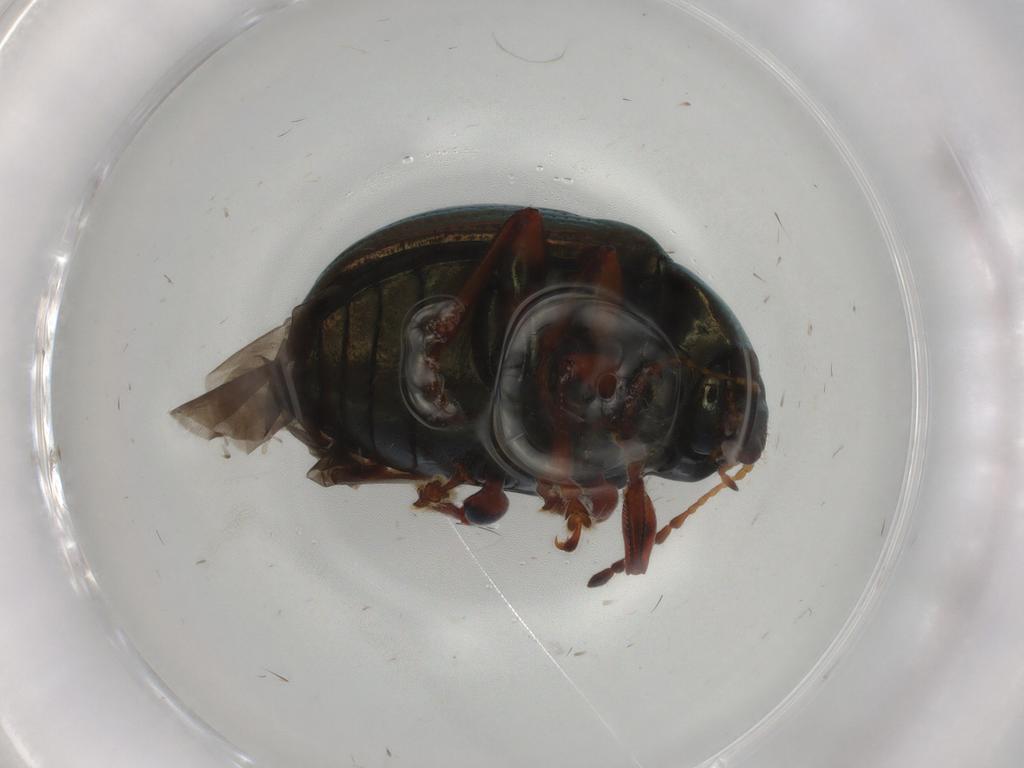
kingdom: Animalia
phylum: Arthropoda
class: Insecta
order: Coleoptera
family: Chrysomelidae
